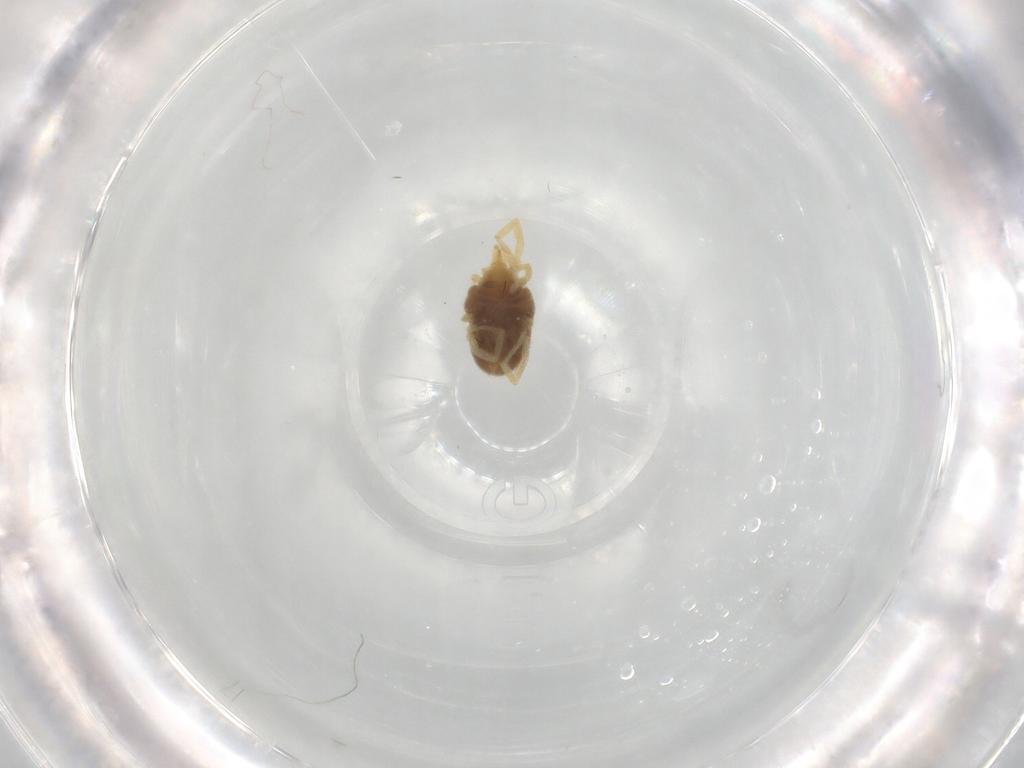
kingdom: Animalia
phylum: Arthropoda
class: Arachnida
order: Trombidiformes
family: Erythraeidae
